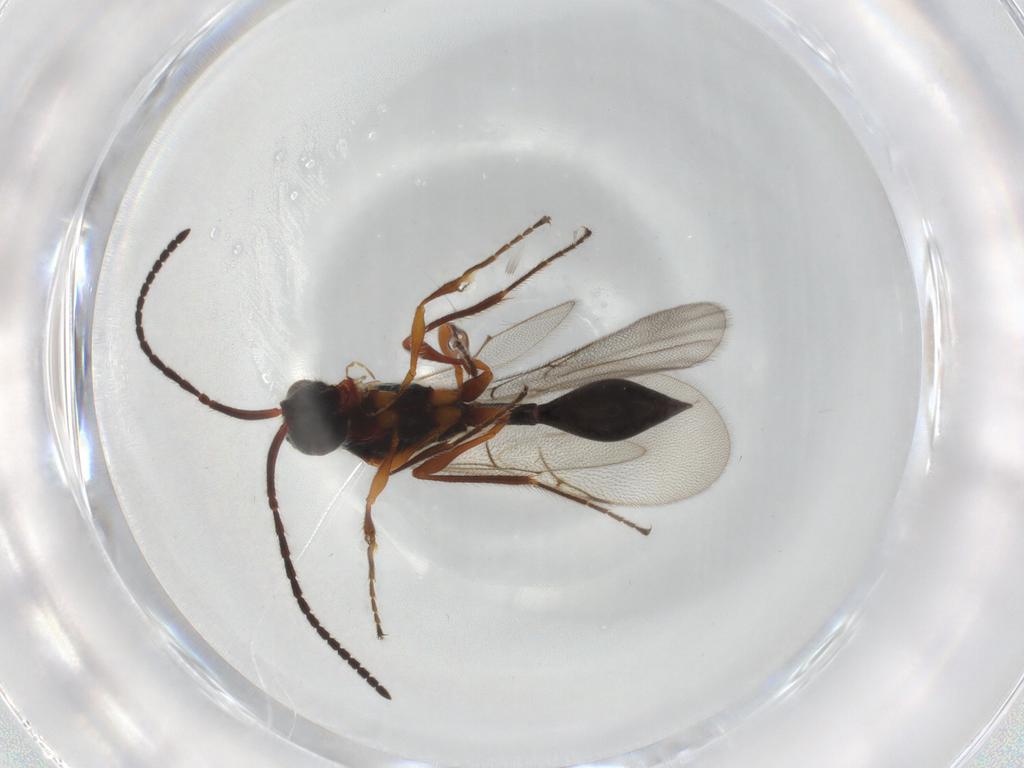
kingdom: Animalia
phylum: Arthropoda
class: Insecta
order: Hymenoptera
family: Diapriidae
